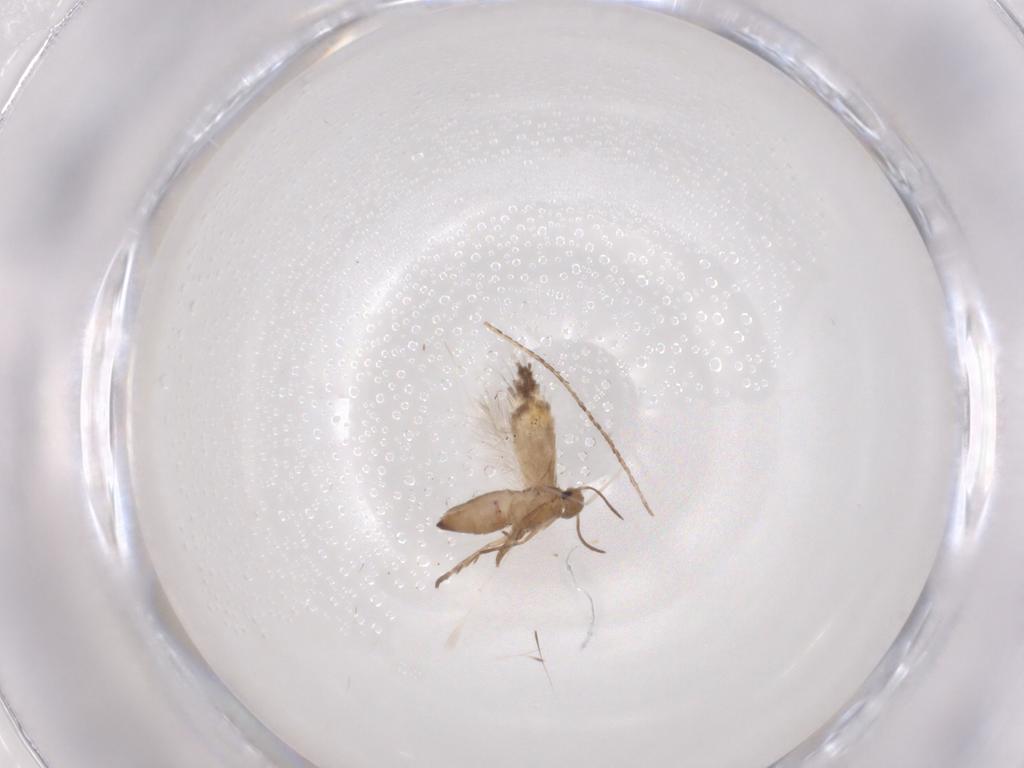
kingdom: Animalia
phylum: Arthropoda
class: Insecta
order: Lepidoptera
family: Heliozelidae
